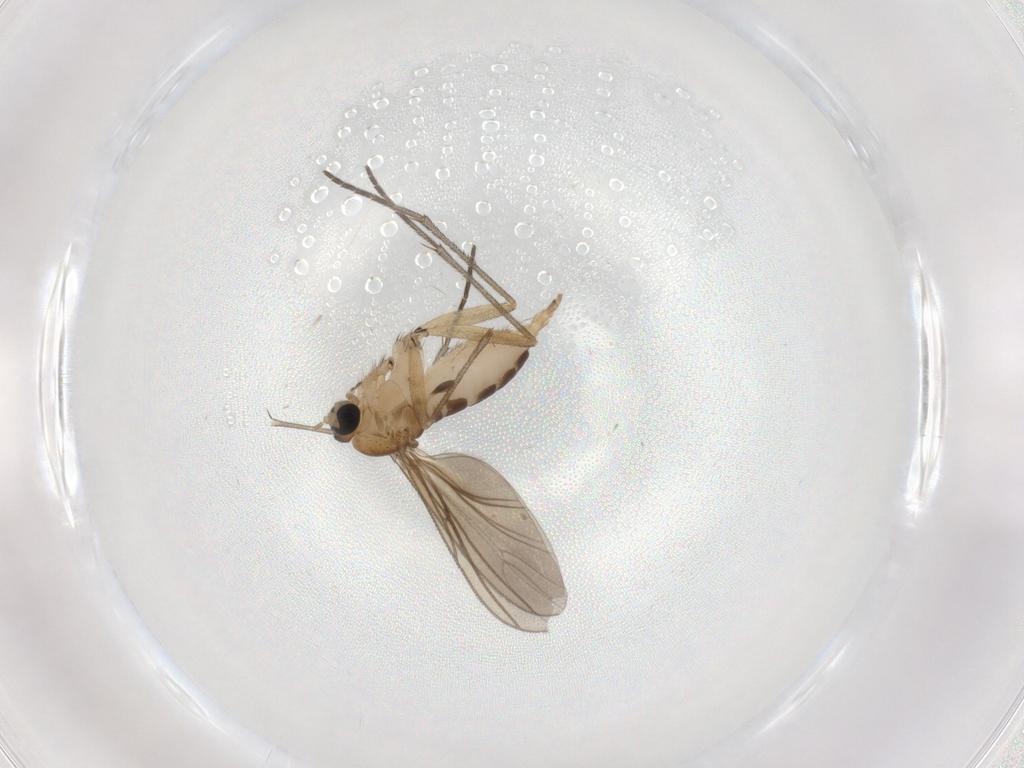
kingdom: Animalia
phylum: Arthropoda
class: Insecta
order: Diptera
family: Sciaridae
